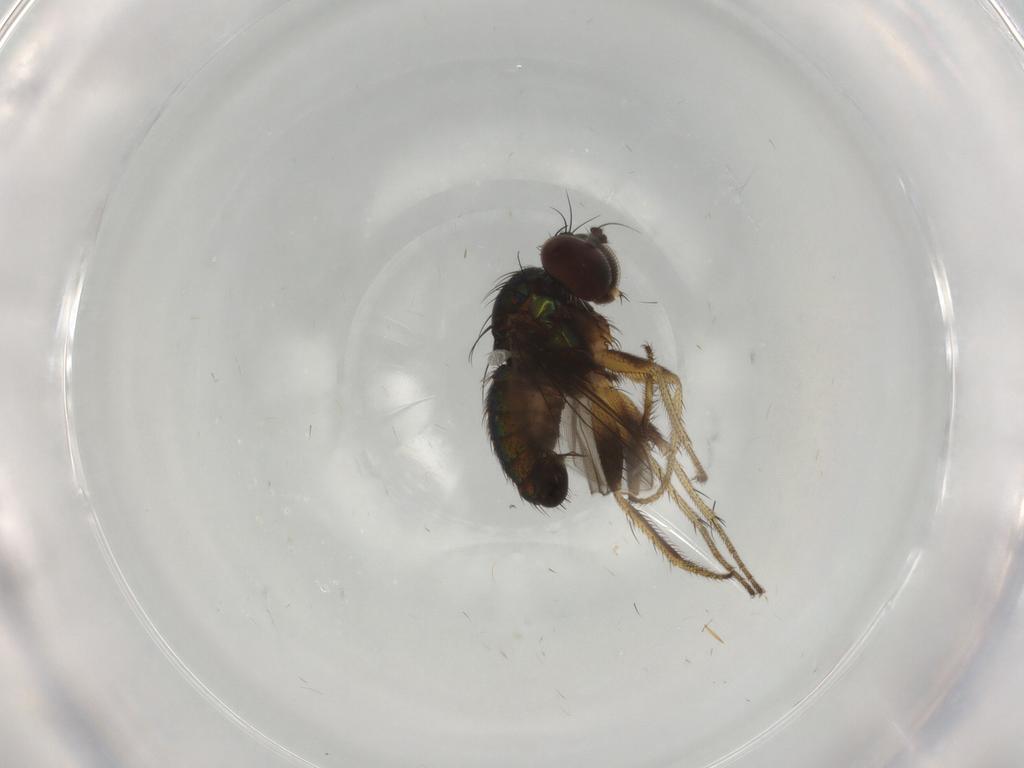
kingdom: Animalia
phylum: Arthropoda
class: Insecta
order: Diptera
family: Dolichopodidae
